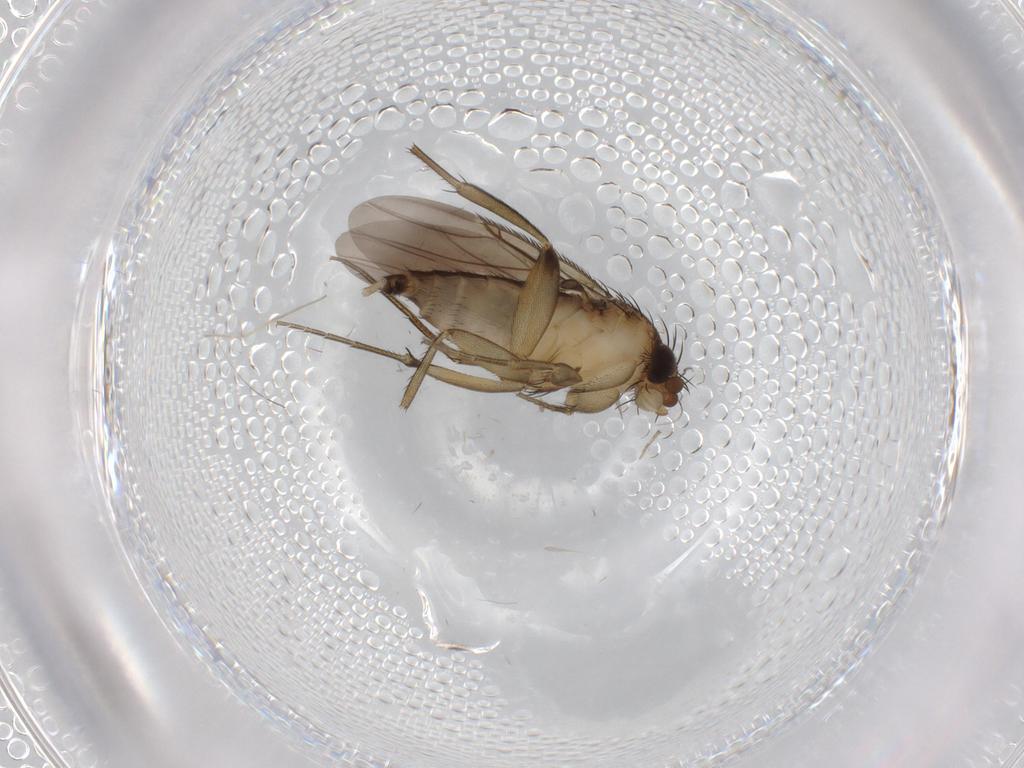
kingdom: Animalia
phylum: Arthropoda
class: Insecta
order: Diptera
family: Phoridae
